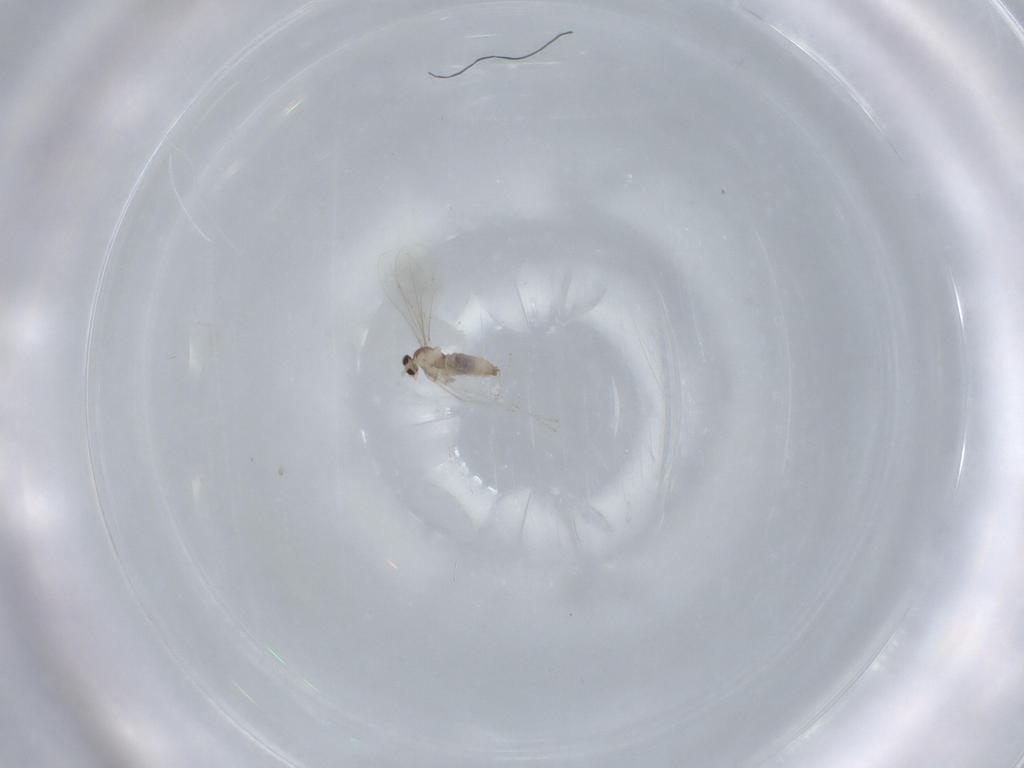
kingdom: Animalia
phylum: Arthropoda
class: Insecta
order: Diptera
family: Cecidomyiidae
